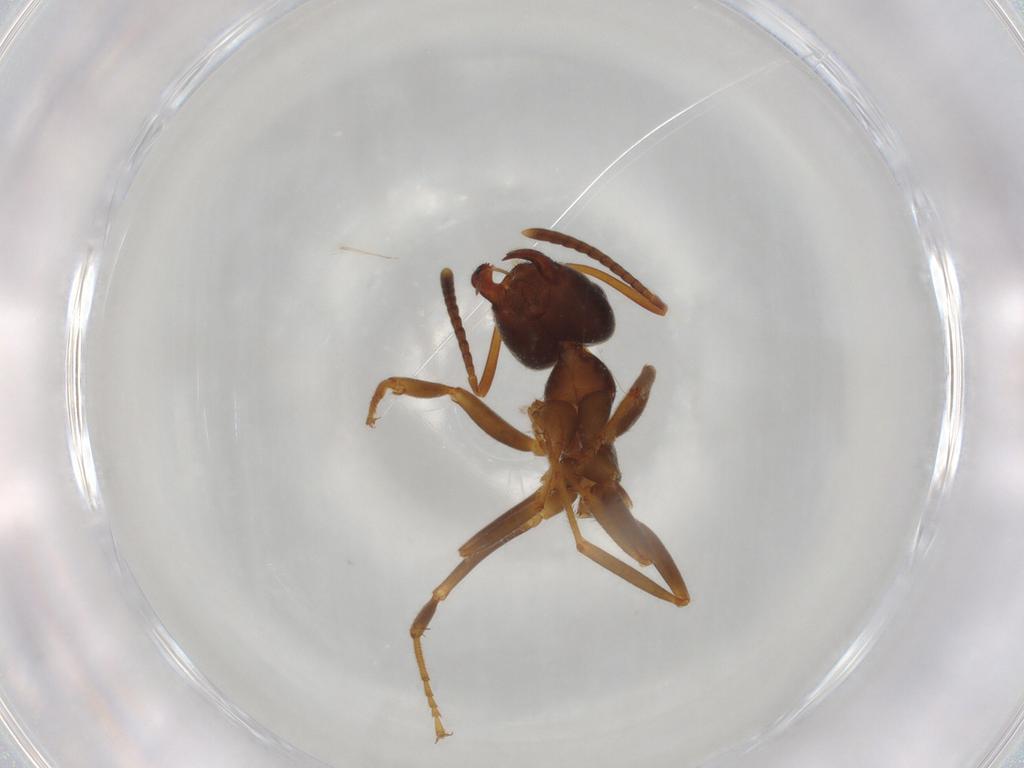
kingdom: Animalia
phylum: Arthropoda
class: Insecta
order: Hymenoptera
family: Formicidae
